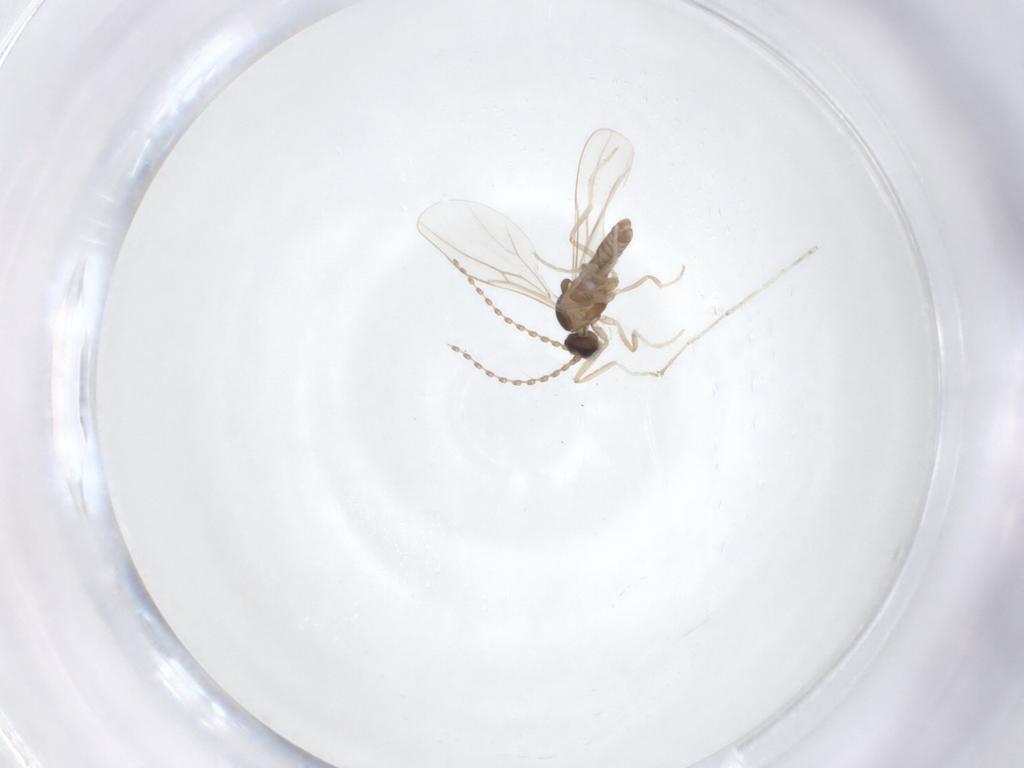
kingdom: Animalia
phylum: Arthropoda
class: Insecta
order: Diptera
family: Cecidomyiidae
